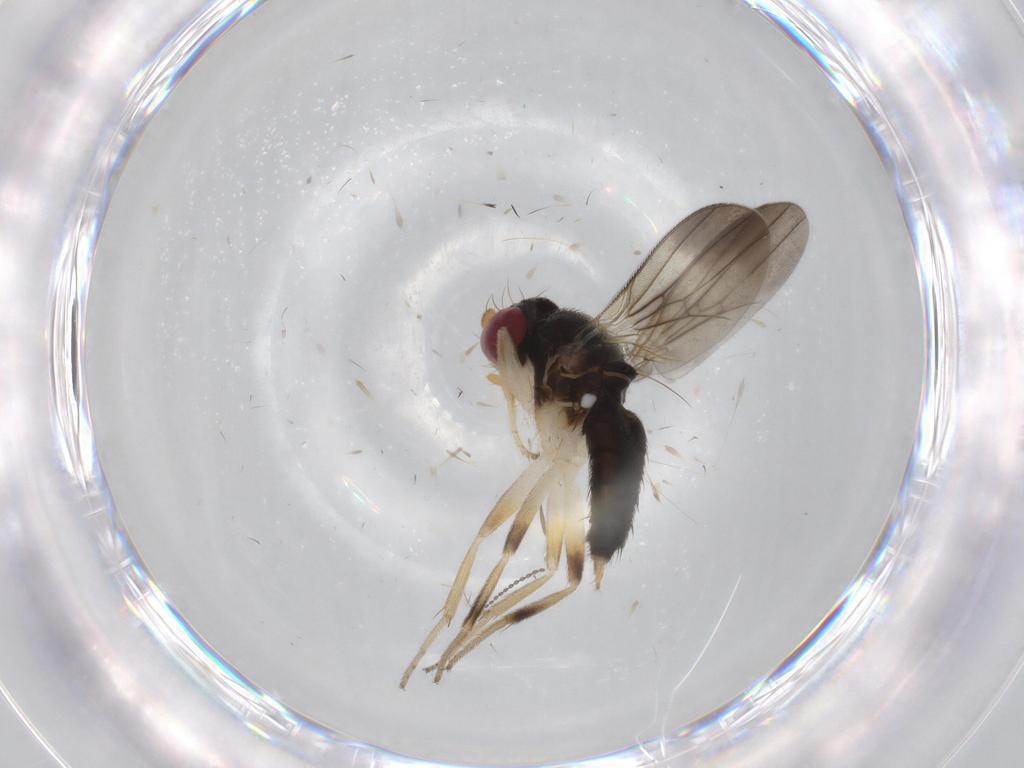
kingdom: Animalia
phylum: Arthropoda
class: Insecta
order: Diptera
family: Clusiidae
